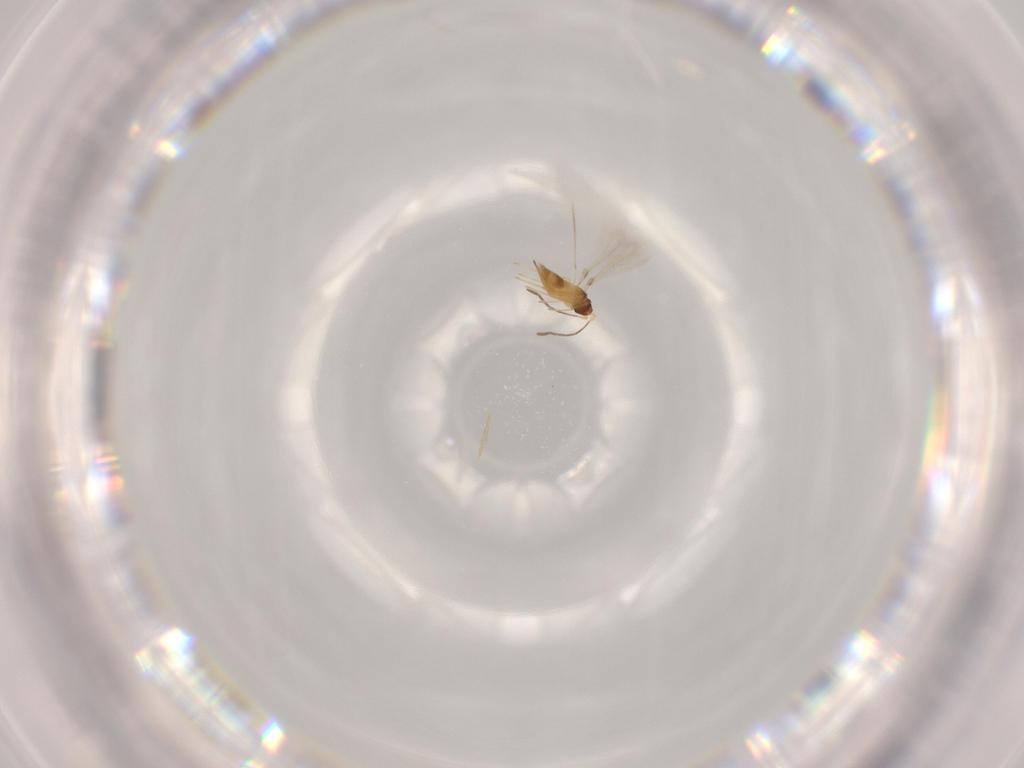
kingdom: Animalia
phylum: Arthropoda
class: Insecta
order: Hymenoptera
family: Mymaridae
